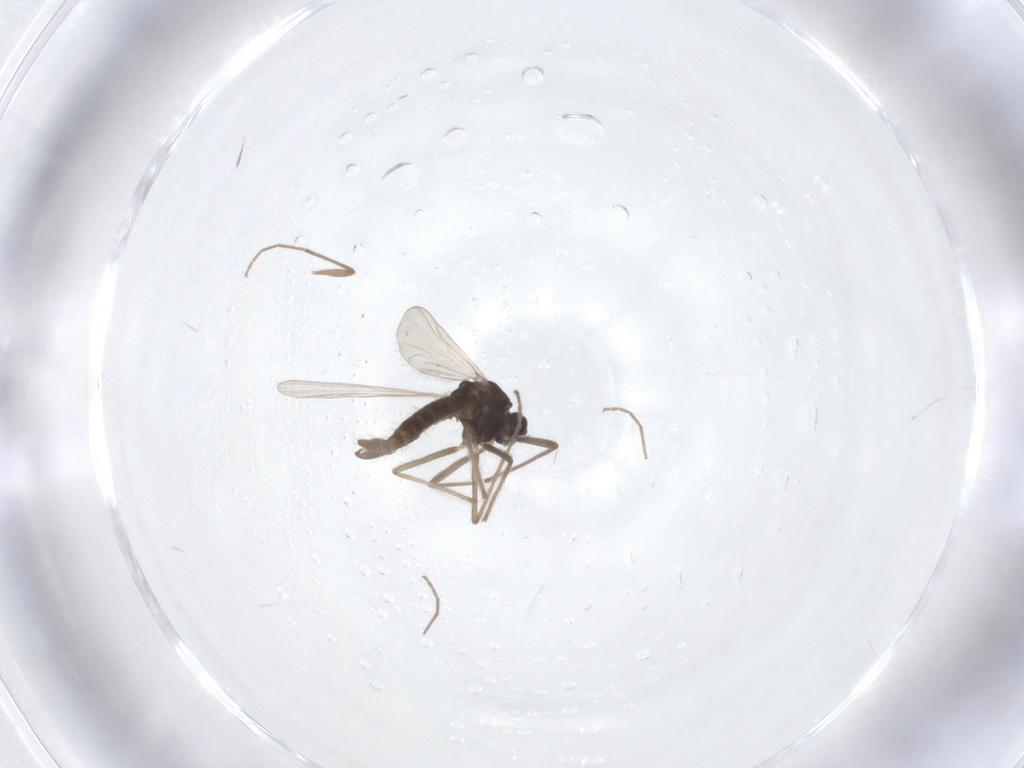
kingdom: Animalia
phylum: Arthropoda
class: Insecta
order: Diptera
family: Chironomidae
